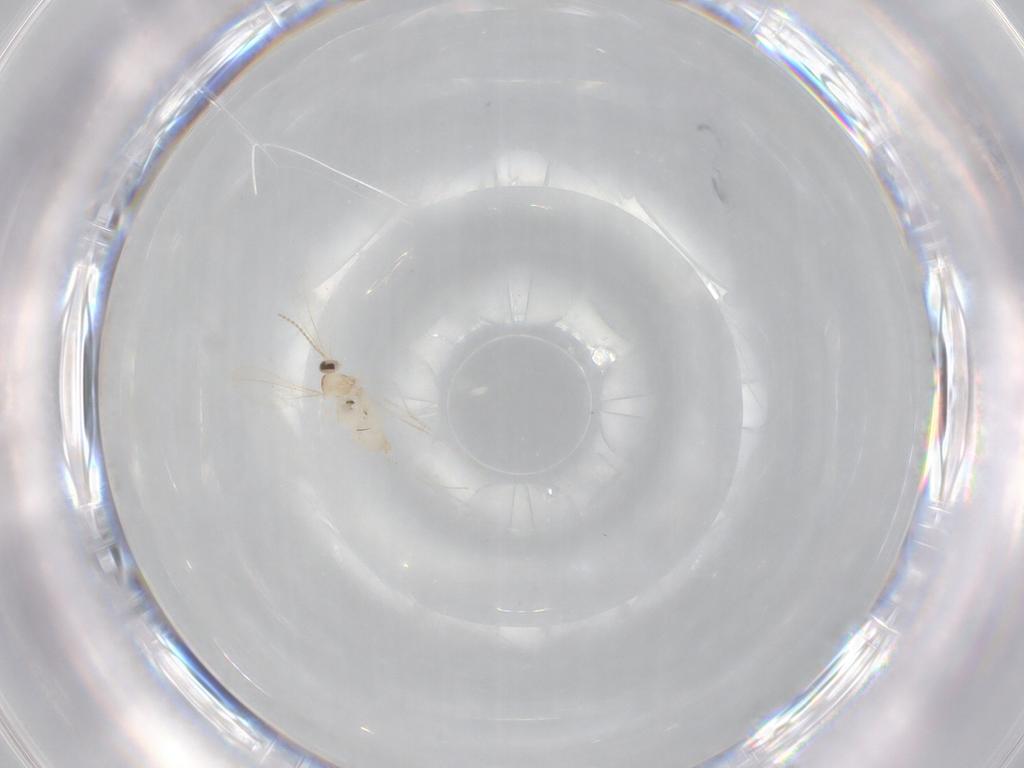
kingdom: Animalia
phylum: Arthropoda
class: Insecta
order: Diptera
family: Cecidomyiidae
